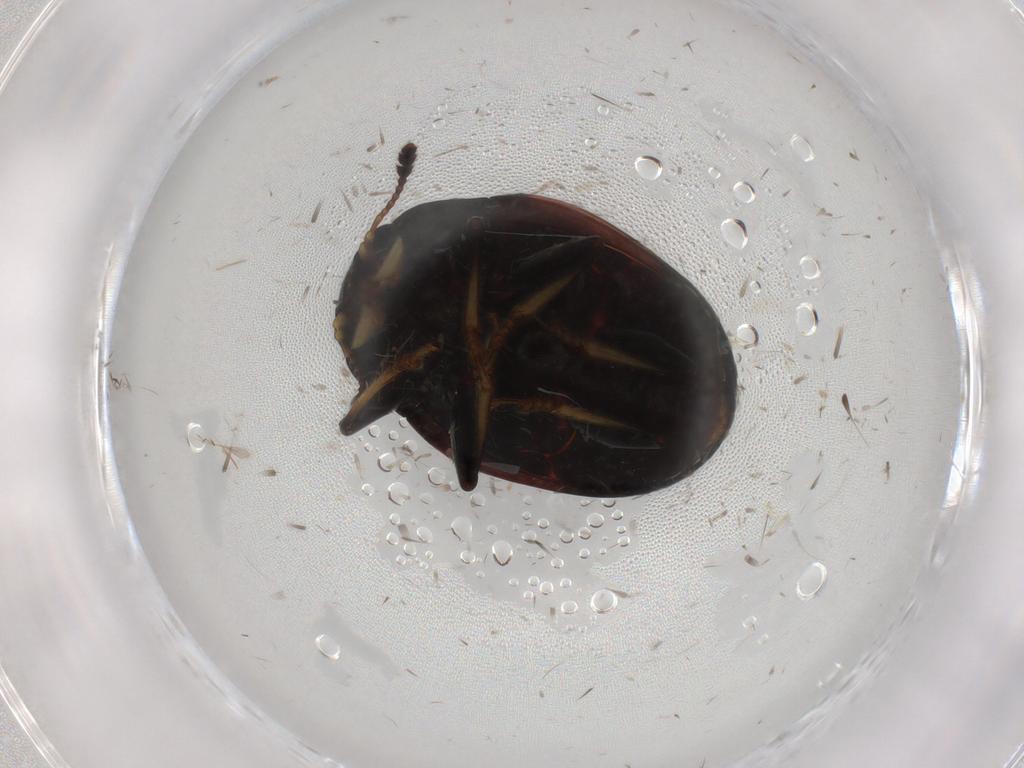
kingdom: Animalia
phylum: Arthropoda
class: Insecta
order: Coleoptera
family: Erotylidae
